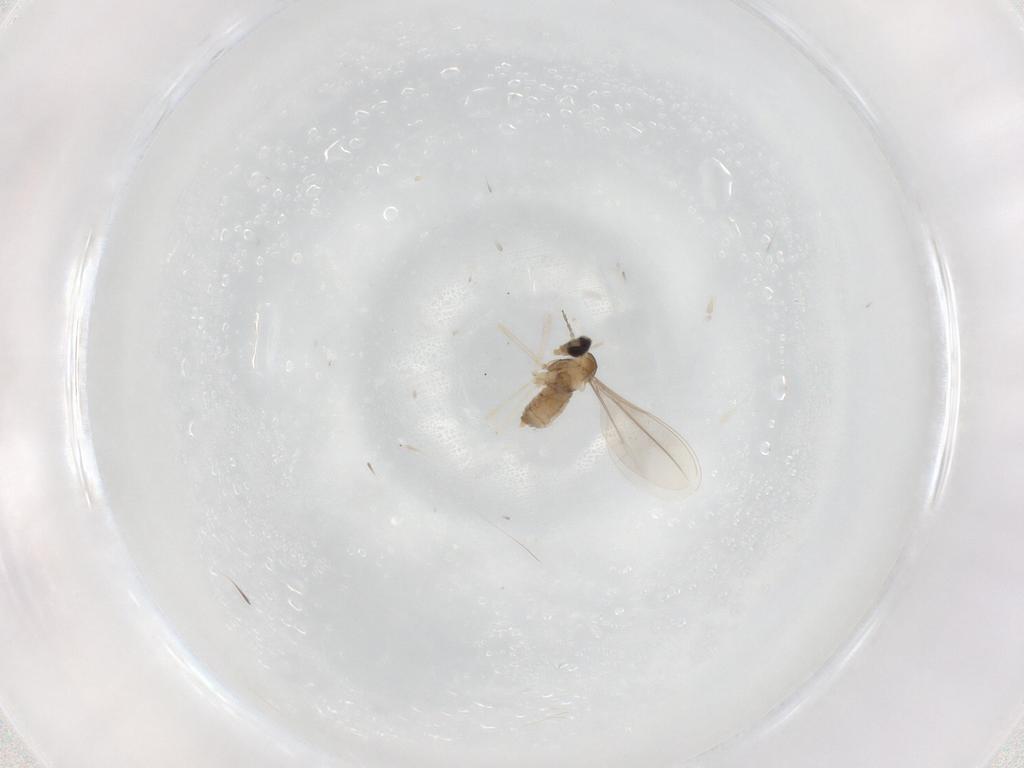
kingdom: Animalia
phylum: Arthropoda
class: Insecta
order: Diptera
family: Cecidomyiidae
